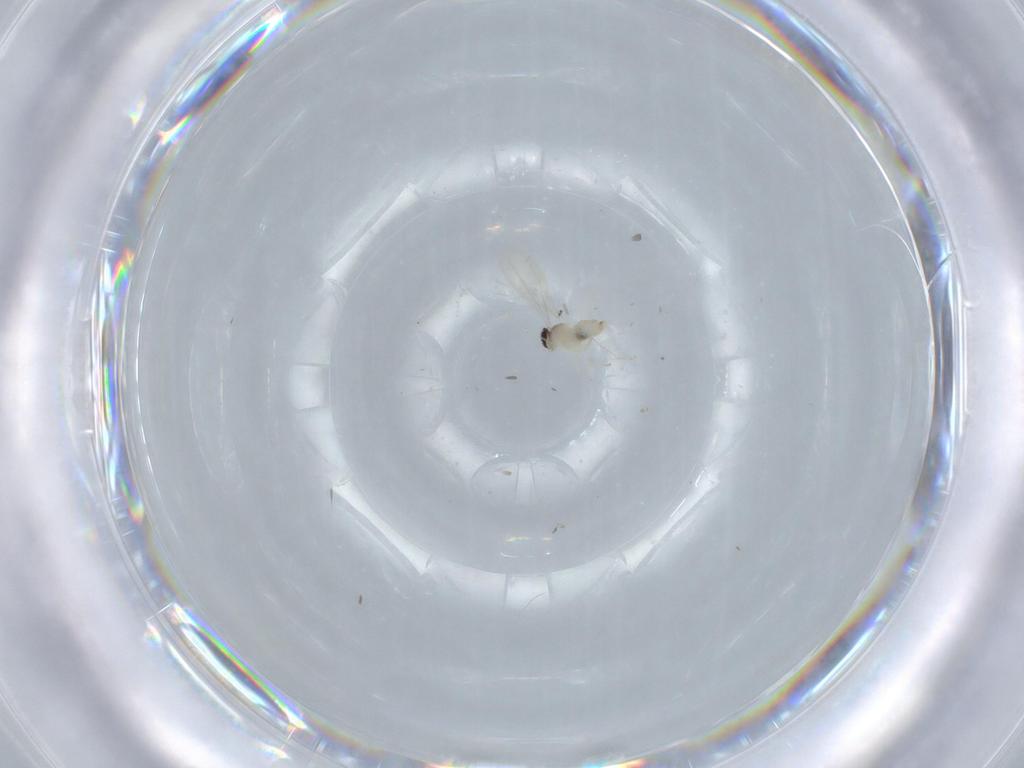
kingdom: Animalia
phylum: Arthropoda
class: Insecta
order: Diptera
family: Cecidomyiidae
